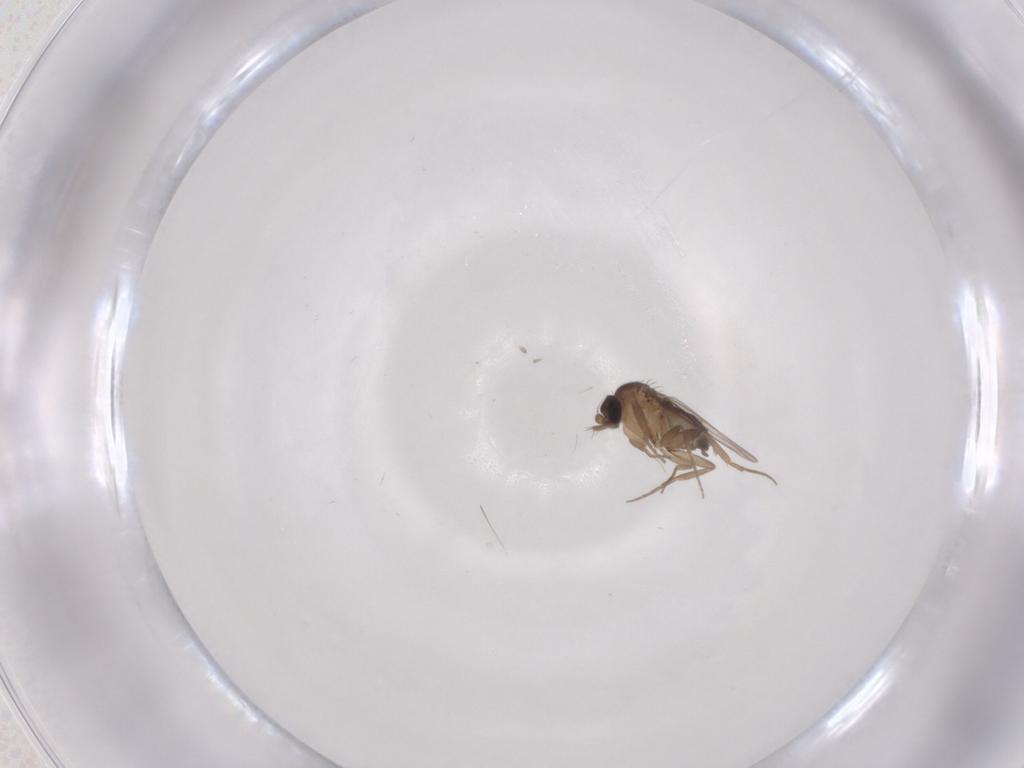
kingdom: Animalia
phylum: Arthropoda
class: Insecta
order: Diptera
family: Phoridae
